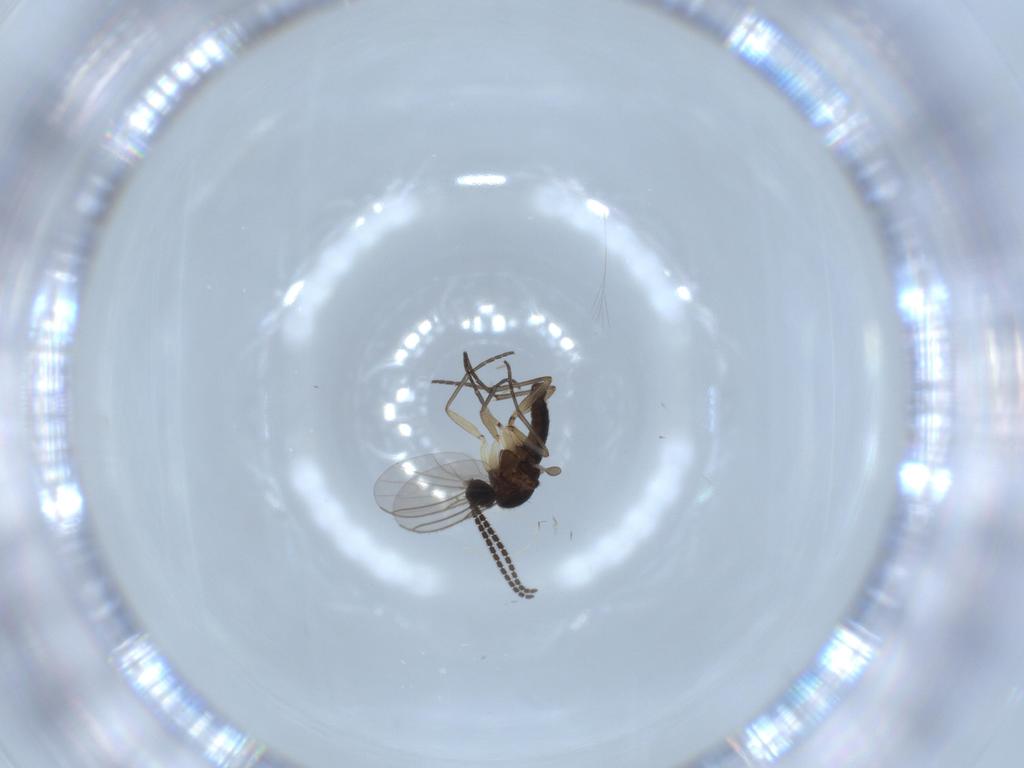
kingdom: Animalia
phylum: Arthropoda
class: Insecta
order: Diptera
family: Sciaridae
